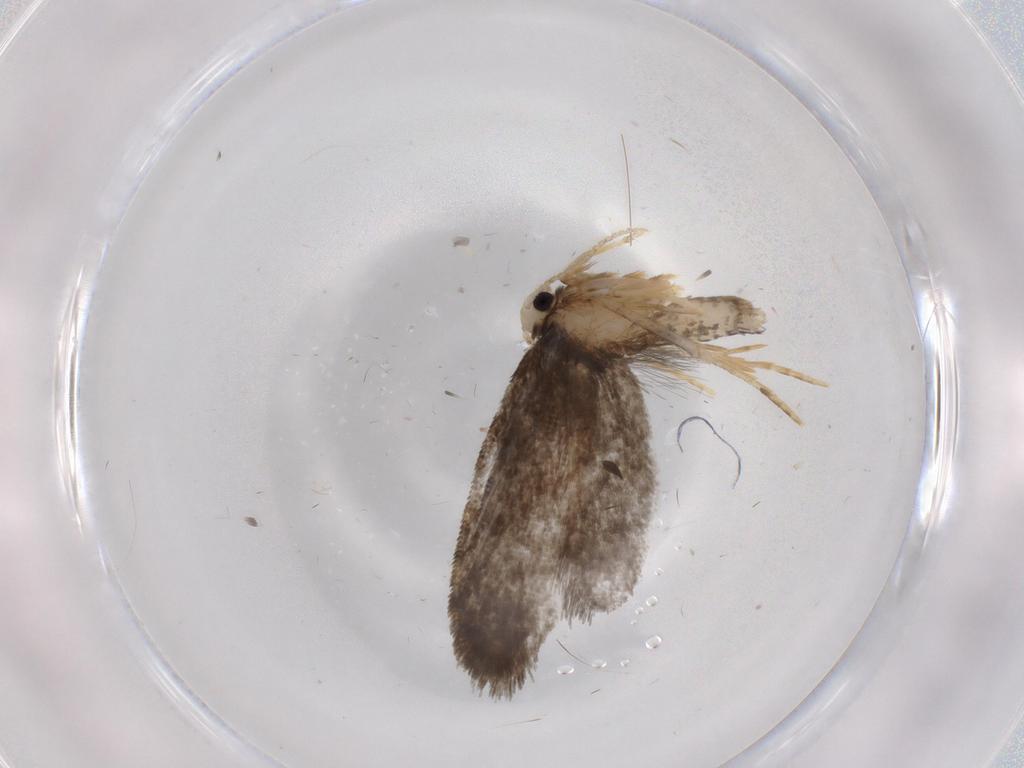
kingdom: Animalia
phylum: Arthropoda
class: Insecta
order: Lepidoptera
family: Psychidae
